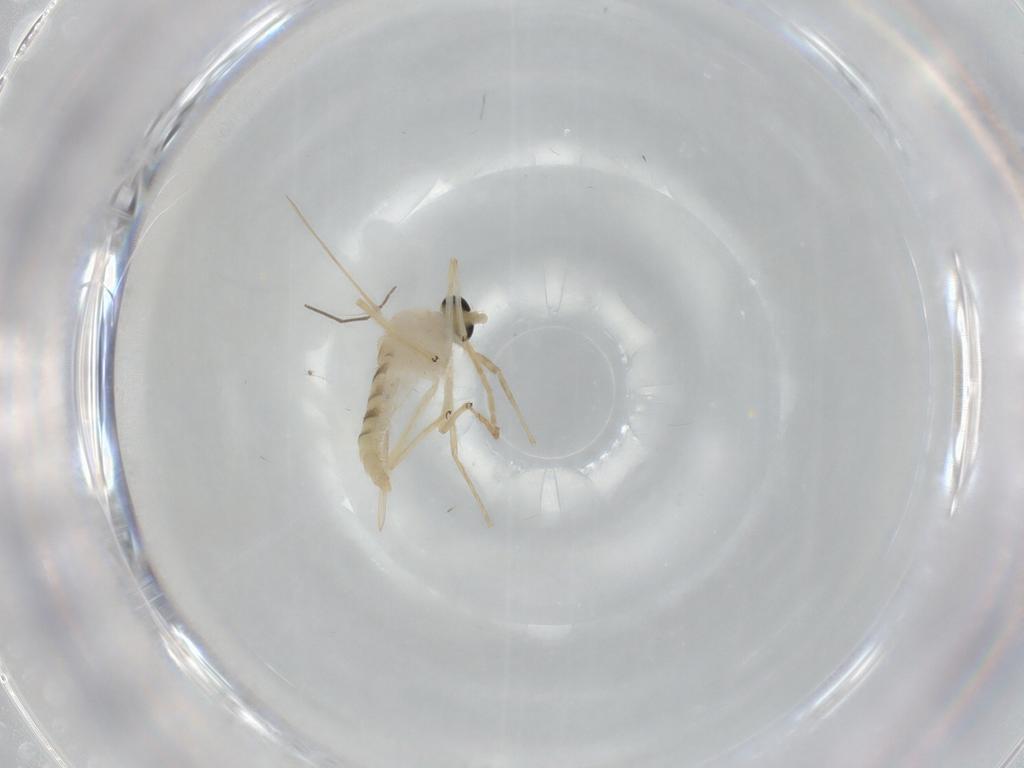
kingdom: Animalia
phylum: Arthropoda
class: Insecta
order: Diptera
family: Chironomidae
